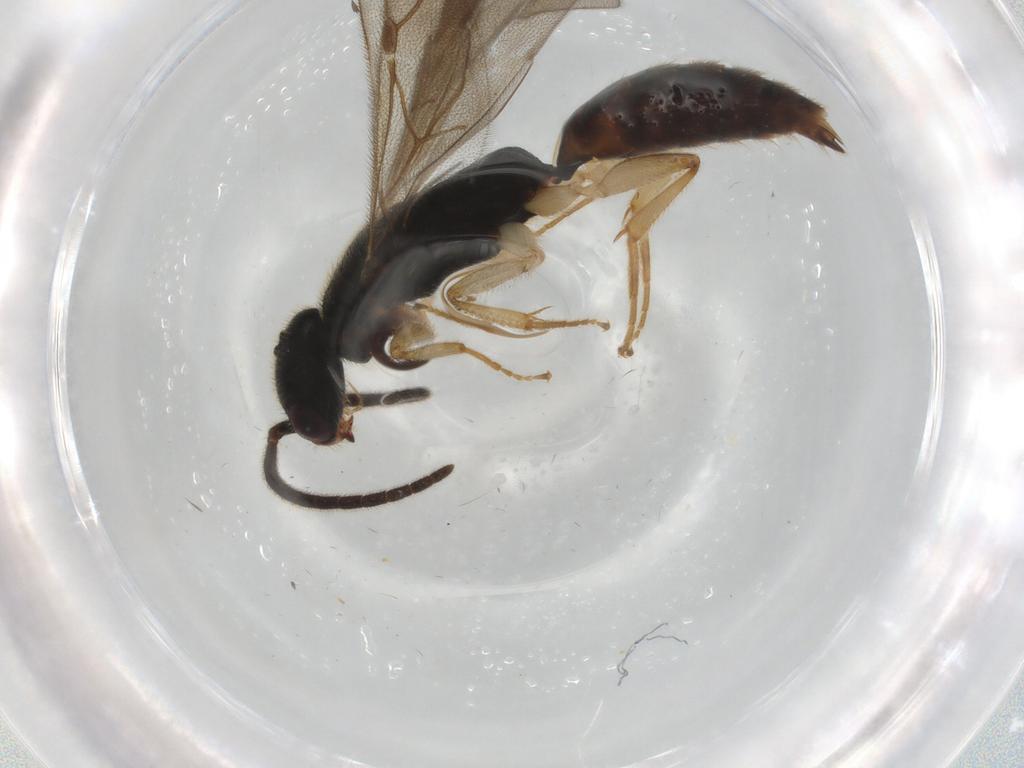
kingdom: Animalia
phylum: Arthropoda
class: Insecta
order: Hymenoptera
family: Bethylidae
